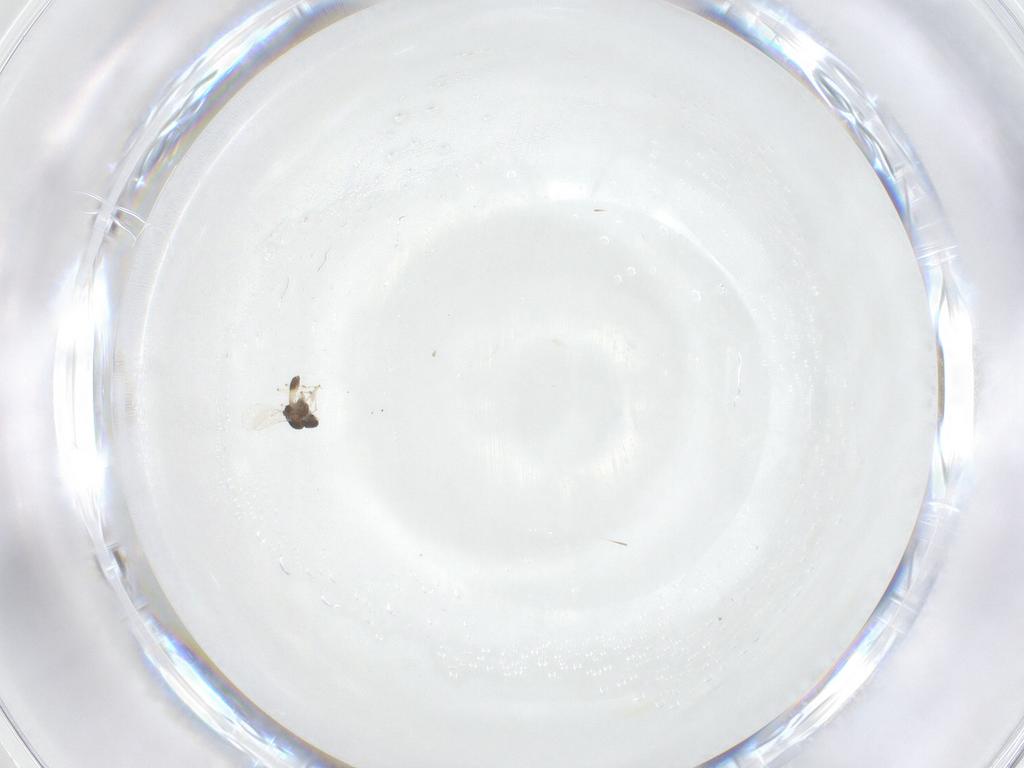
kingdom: Animalia
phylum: Arthropoda
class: Insecta
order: Diptera
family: Chironomidae
